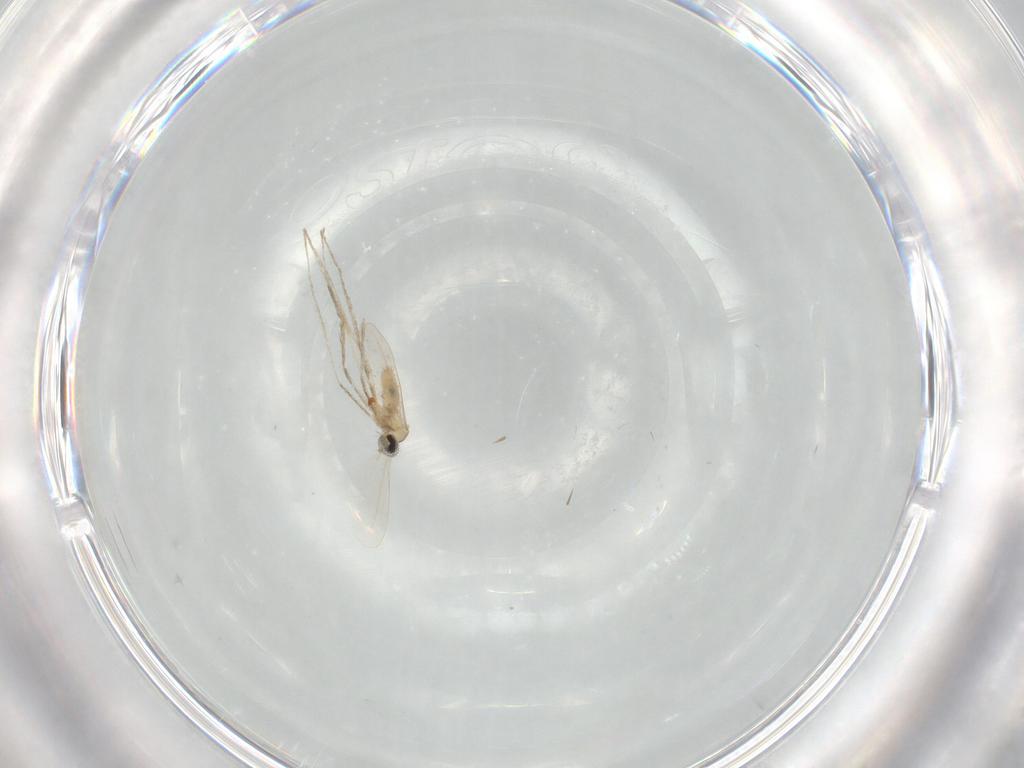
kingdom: Animalia
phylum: Arthropoda
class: Insecta
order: Diptera
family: Cecidomyiidae
